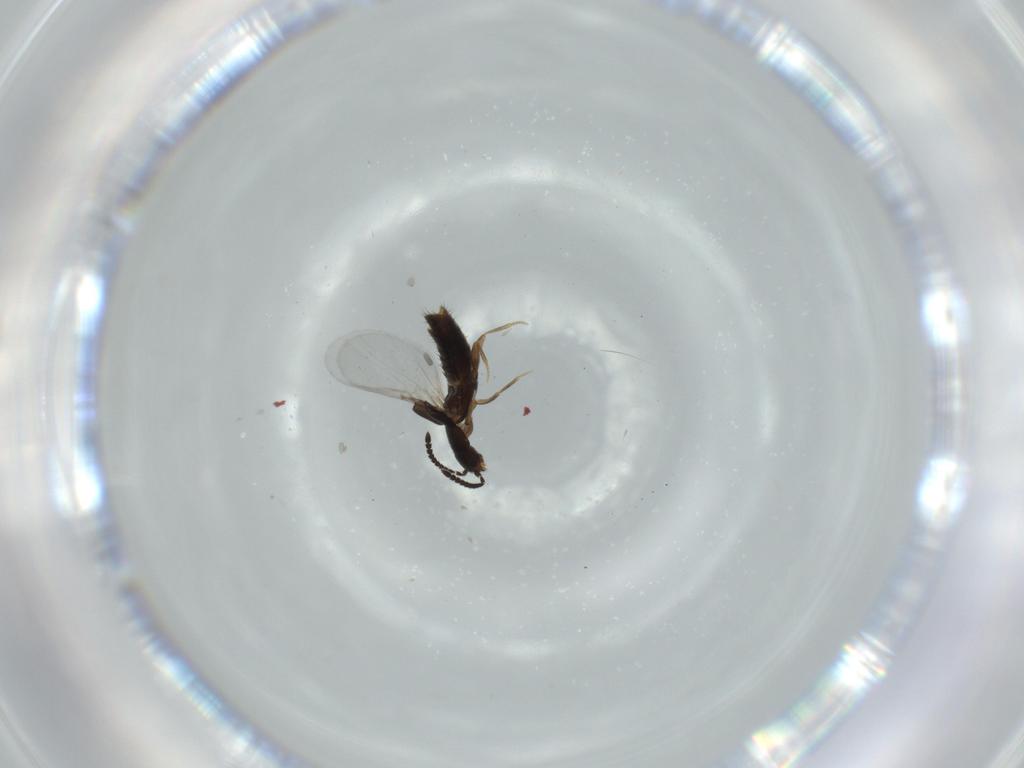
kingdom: Animalia
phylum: Arthropoda
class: Insecta
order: Coleoptera
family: Staphylinidae
